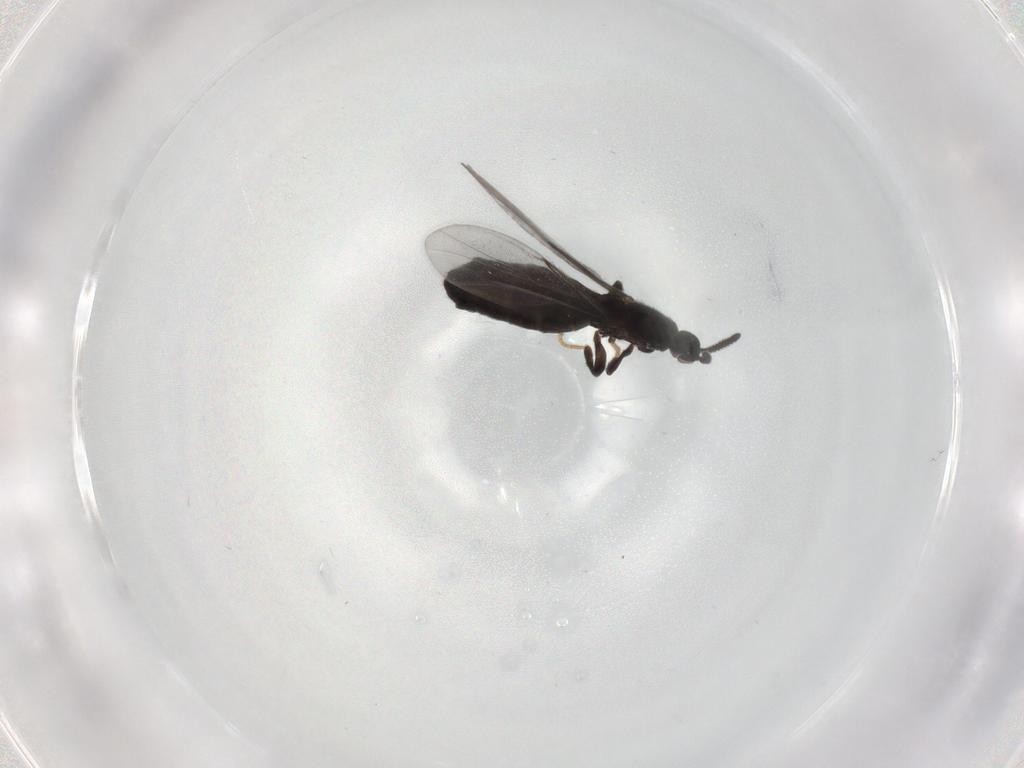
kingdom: Animalia
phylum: Arthropoda
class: Insecta
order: Diptera
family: Scatopsidae
